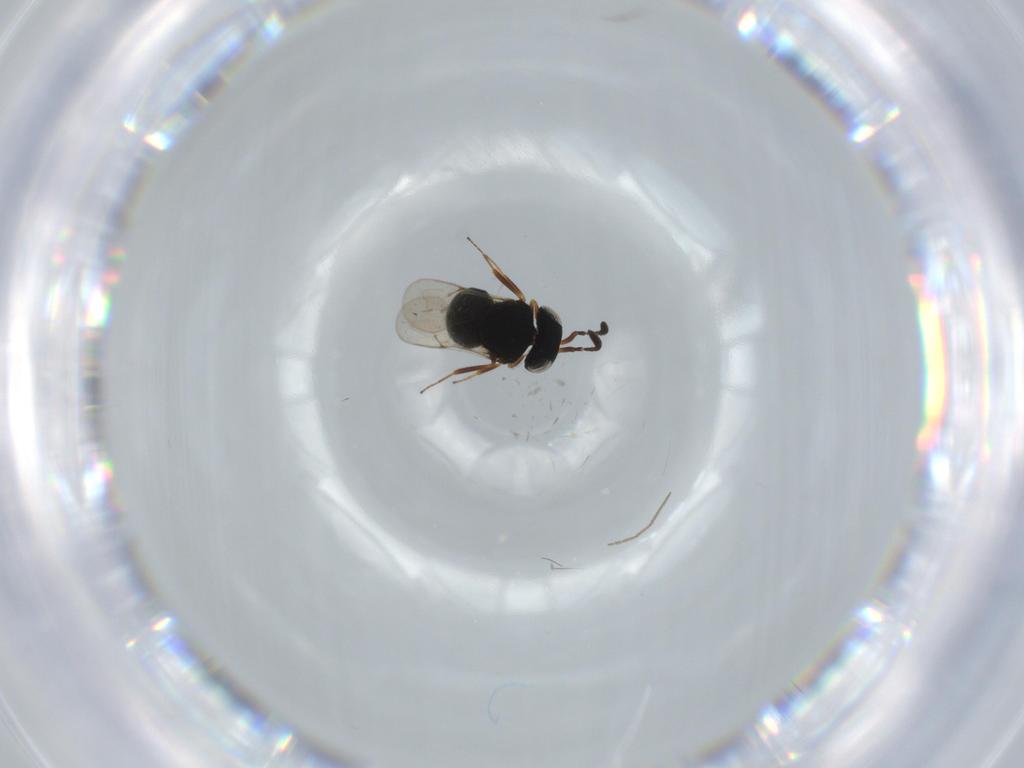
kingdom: Animalia
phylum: Arthropoda
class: Insecta
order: Hymenoptera
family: Scelionidae
